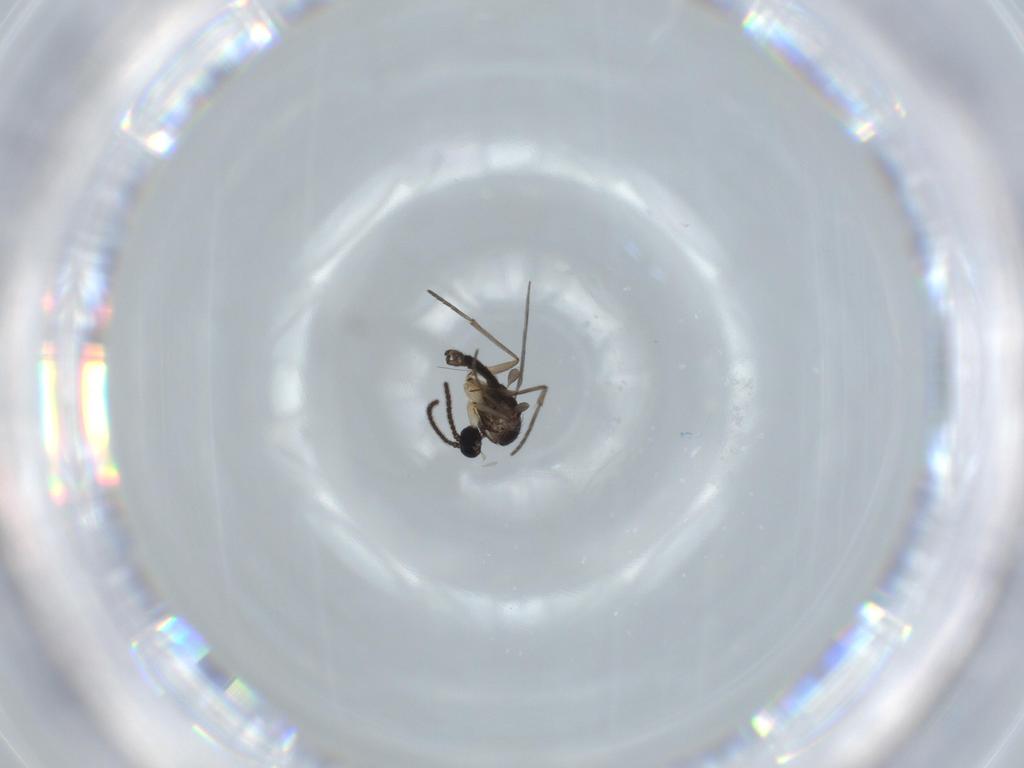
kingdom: Animalia
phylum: Arthropoda
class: Insecta
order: Diptera
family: Sciaridae
